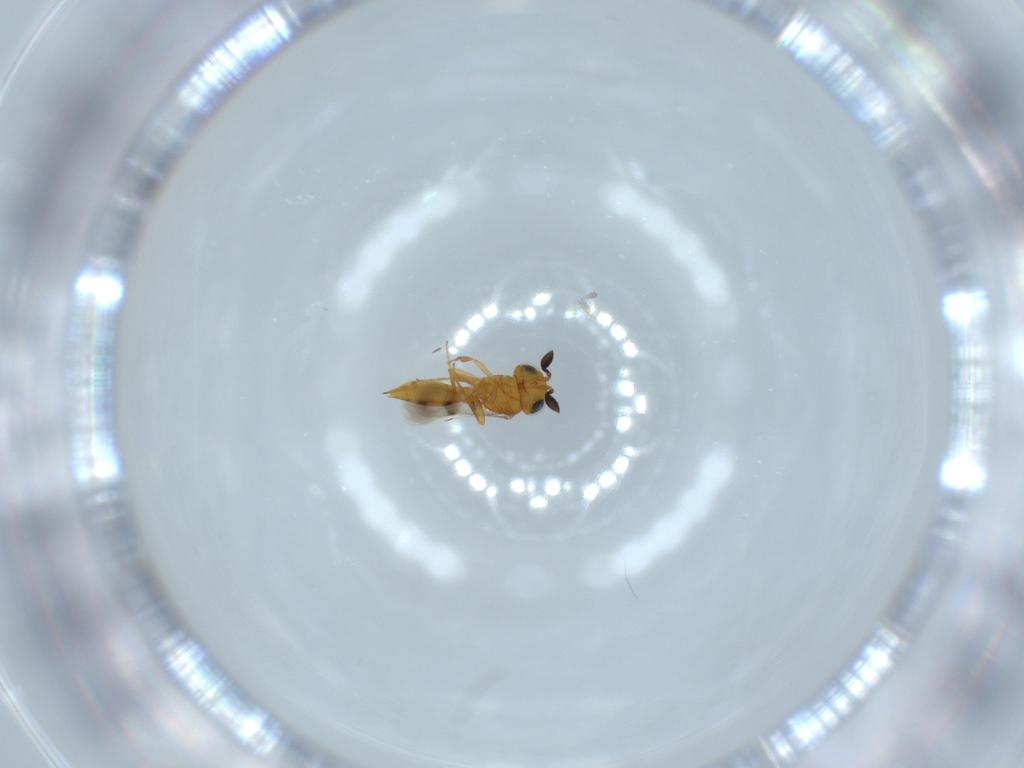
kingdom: Animalia
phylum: Arthropoda
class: Insecta
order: Hymenoptera
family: Scelionidae
